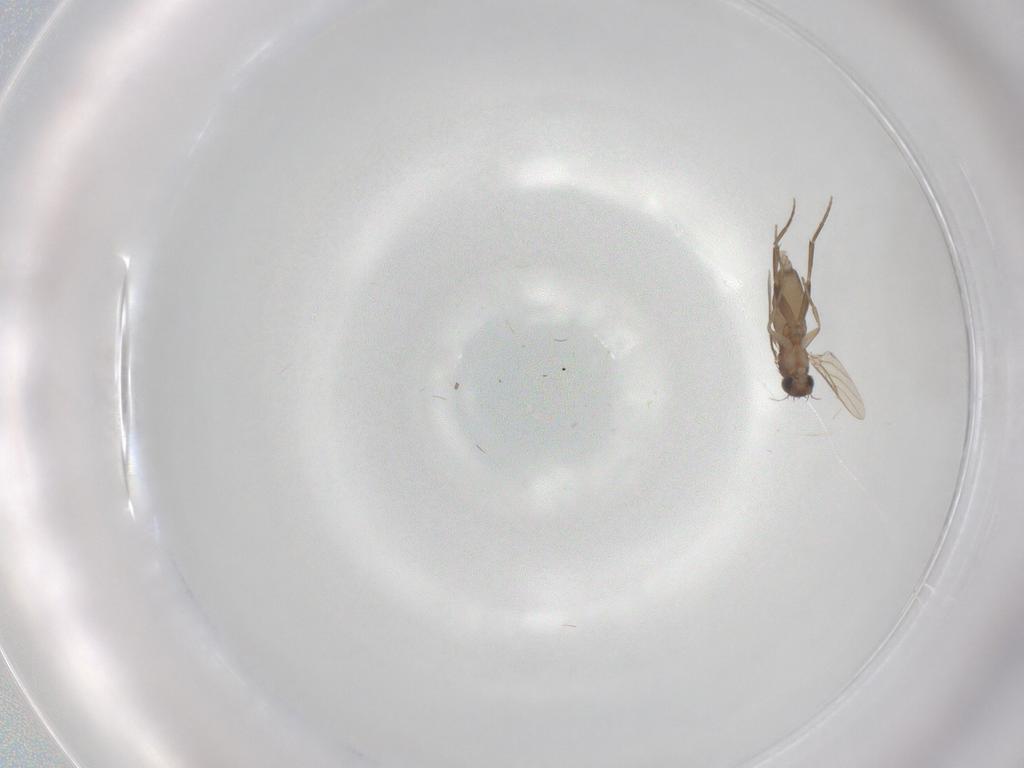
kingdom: Animalia
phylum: Arthropoda
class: Insecta
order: Diptera
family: Phoridae
